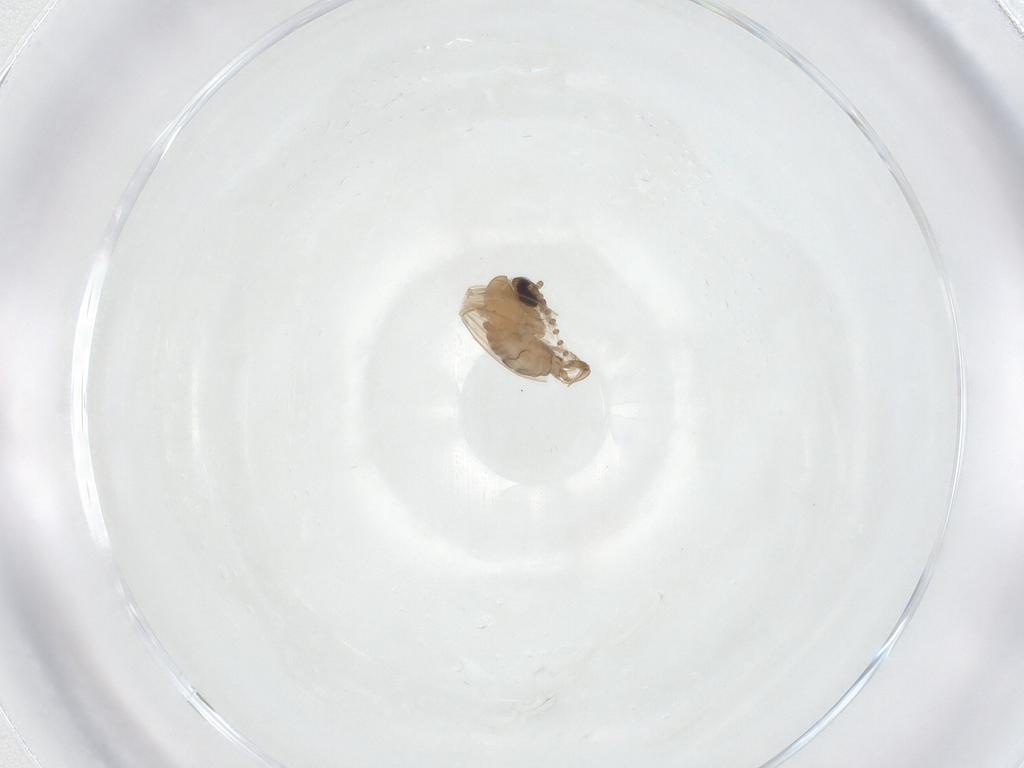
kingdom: Animalia
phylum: Arthropoda
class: Insecta
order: Diptera
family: Psychodidae
